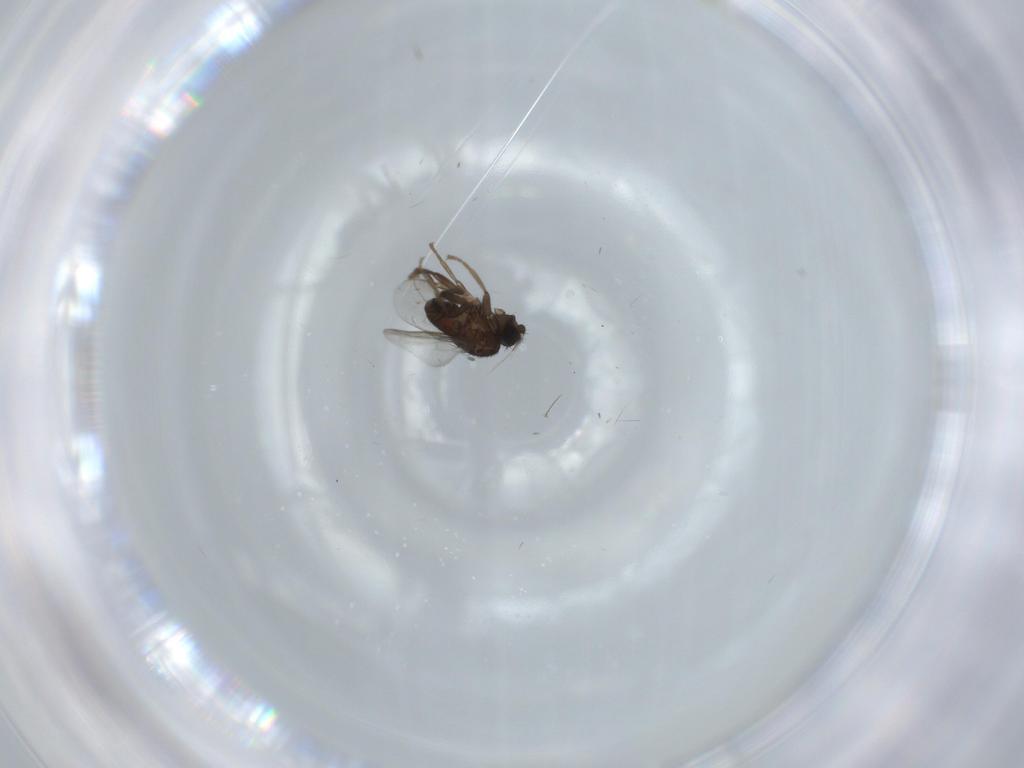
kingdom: Animalia
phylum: Arthropoda
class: Insecta
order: Diptera
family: Sphaeroceridae
